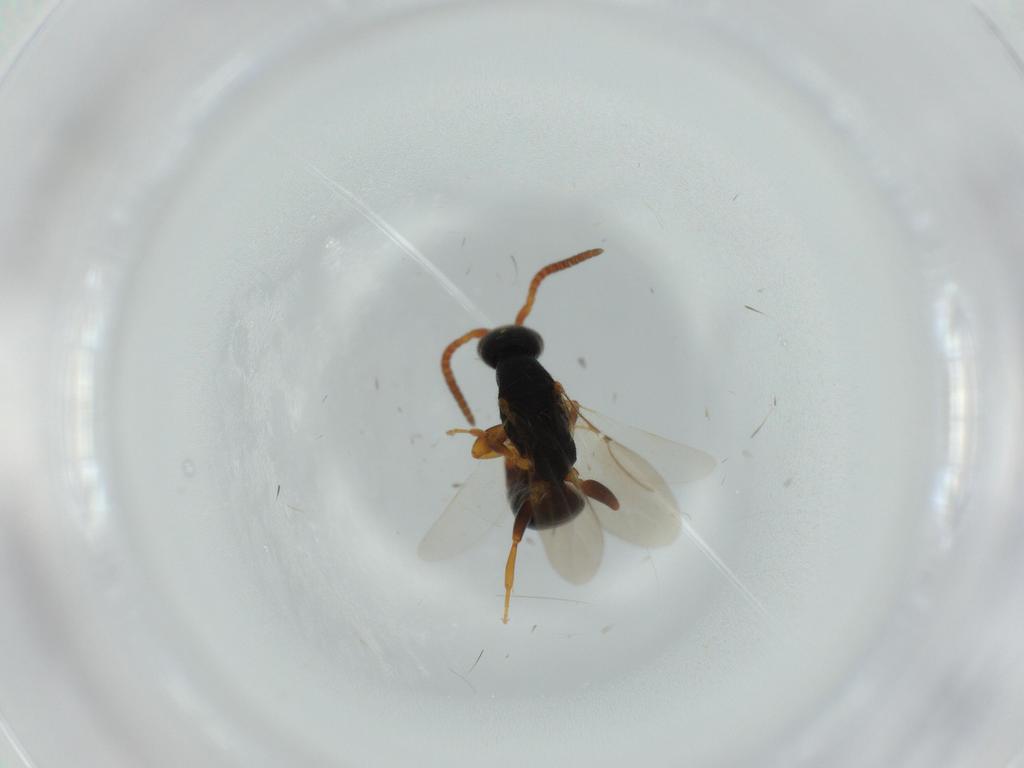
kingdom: Animalia
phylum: Arthropoda
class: Insecta
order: Hymenoptera
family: Bethylidae
